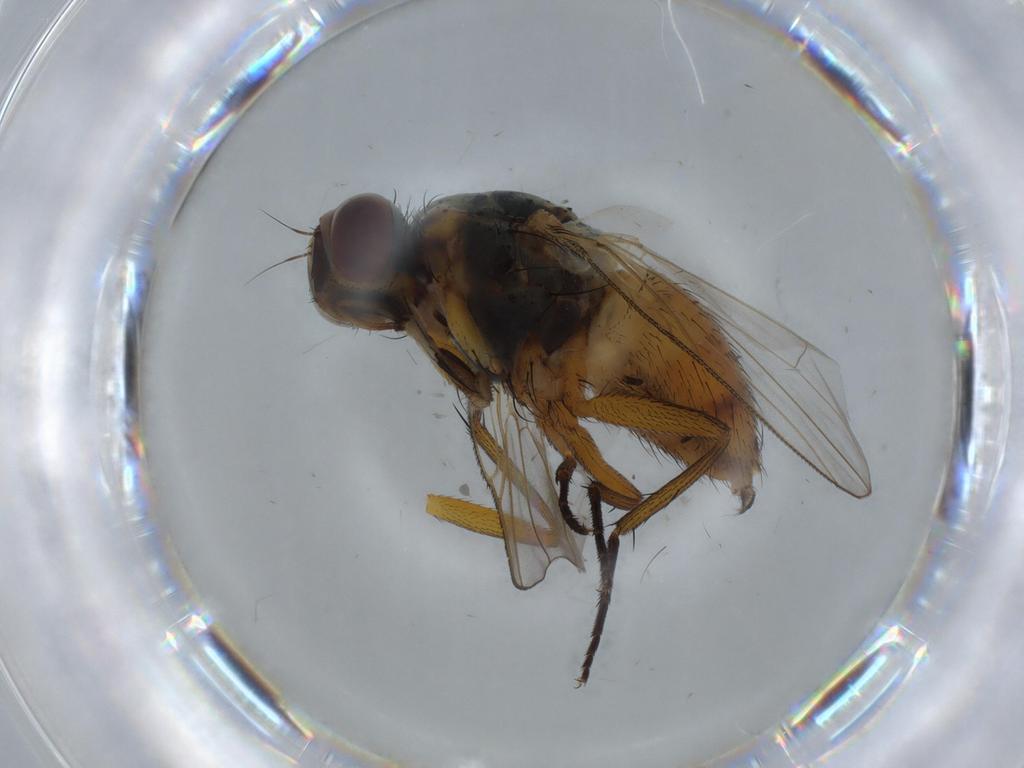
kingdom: Animalia
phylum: Arthropoda
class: Insecta
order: Diptera
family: Muscidae
